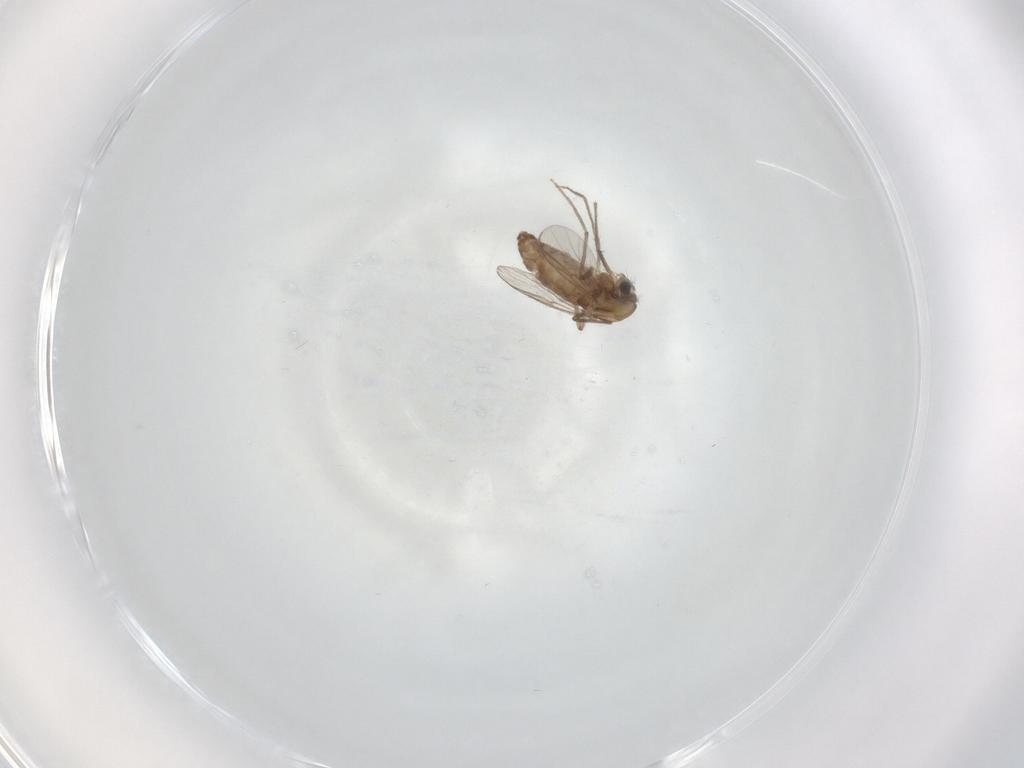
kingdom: Animalia
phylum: Arthropoda
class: Insecta
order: Diptera
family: Chironomidae
